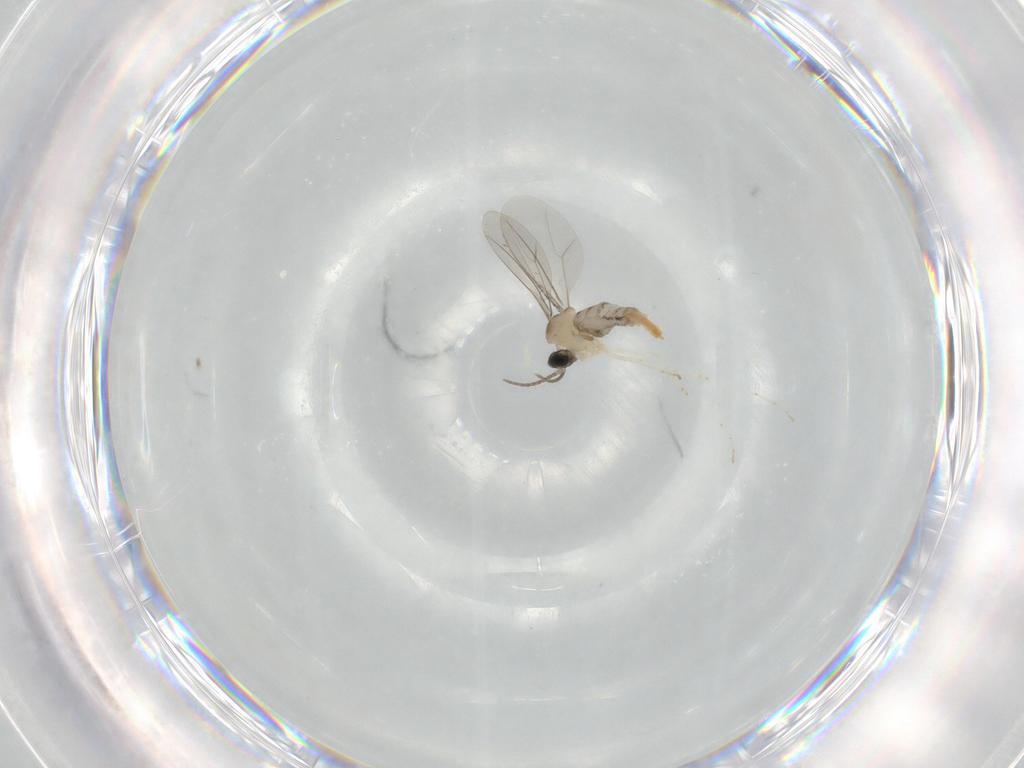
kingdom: Animalia
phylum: Arthropoda
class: Insecta
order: Diptera
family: Cecidomyiidae
